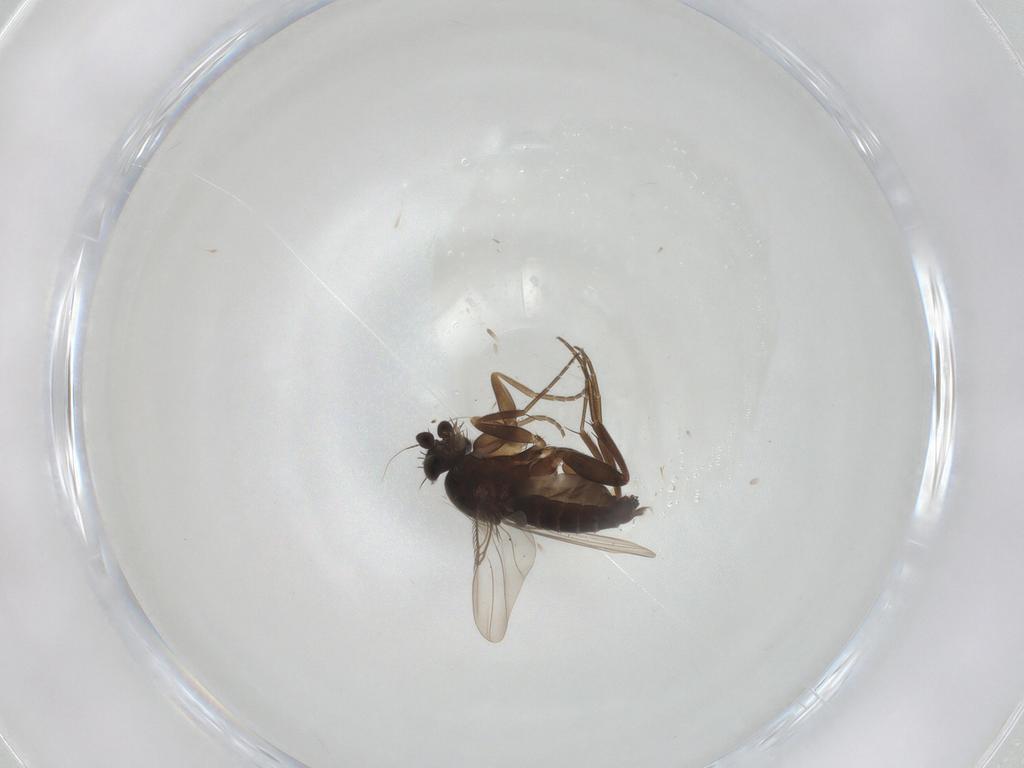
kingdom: Animalia
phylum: Arthropoda
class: Insecta
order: Diptera
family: Phoridae
